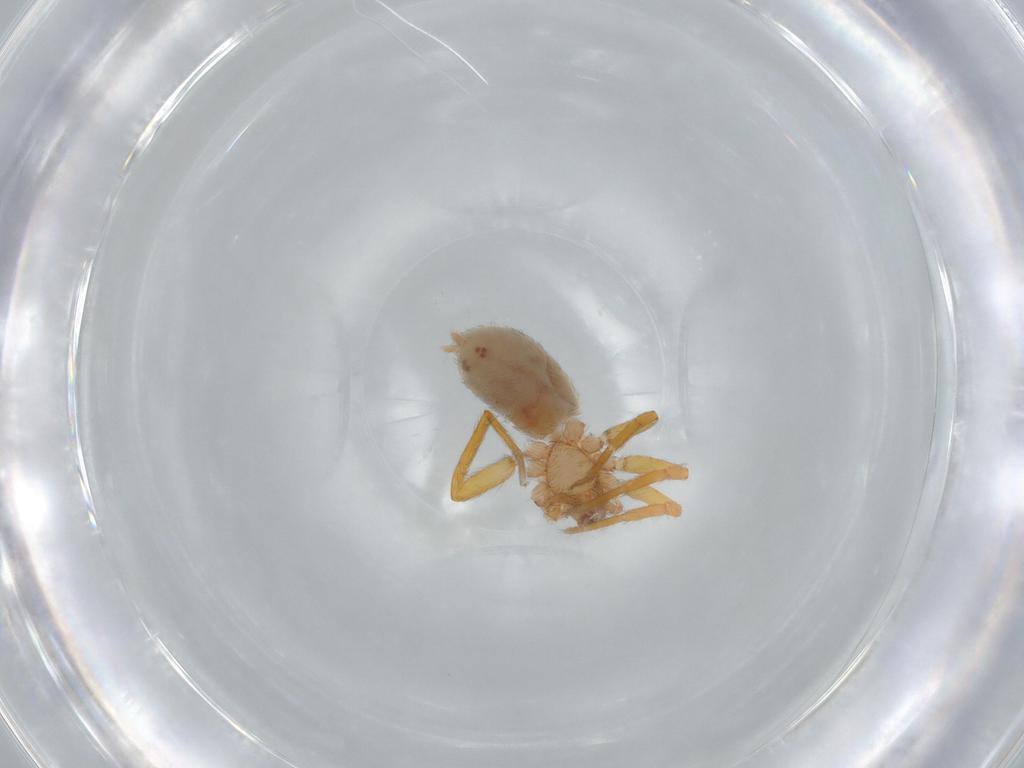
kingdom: Animalia
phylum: Arthropoda
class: Arachnida
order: Araneae
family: Oonopidae
